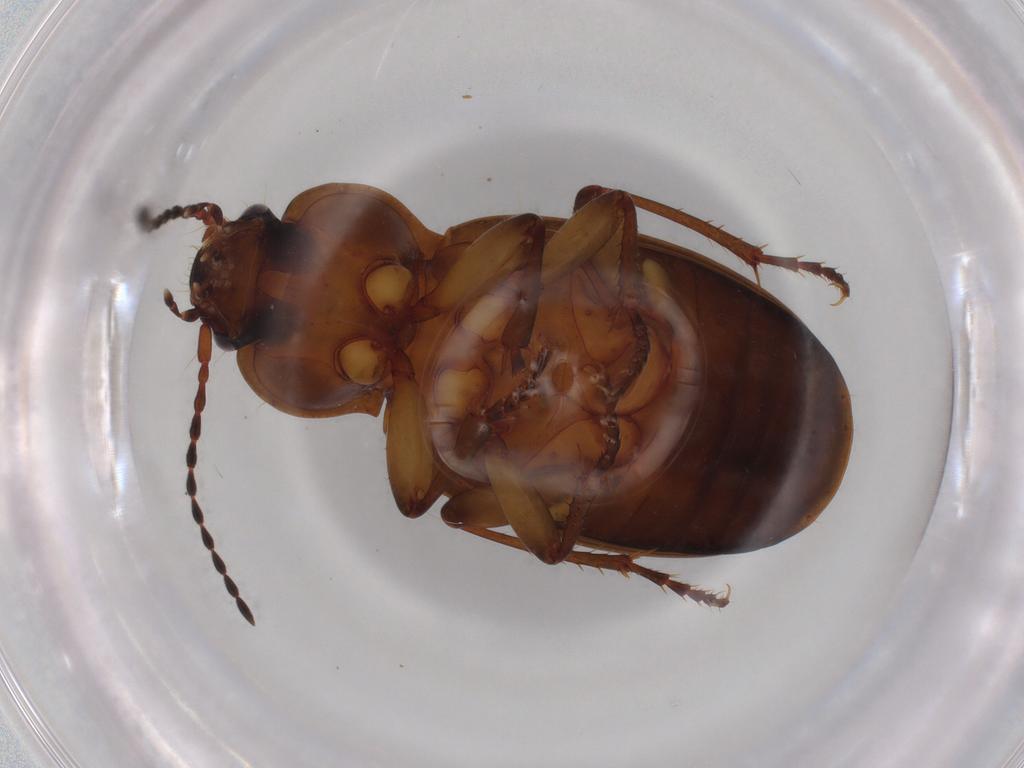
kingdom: Animalia
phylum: Arthropoda
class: Insecta
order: Coleoptera
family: Carabidae
